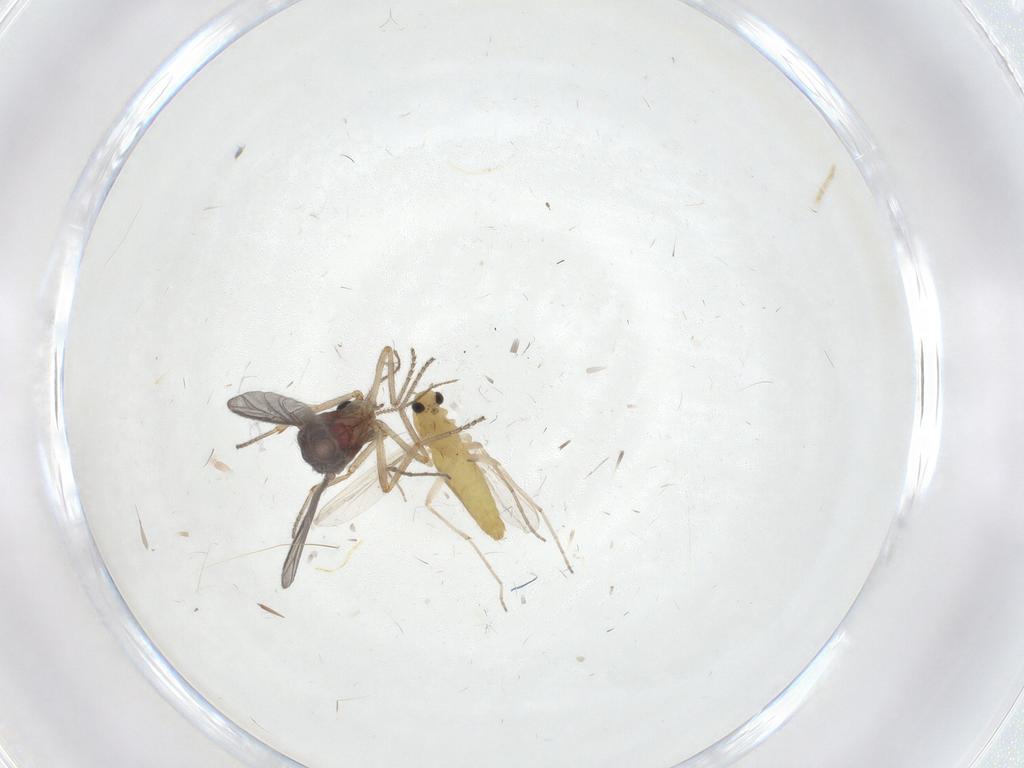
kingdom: Animalia
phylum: Arthropoda
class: Insecta
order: Diptera
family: Ceratopogonidae
